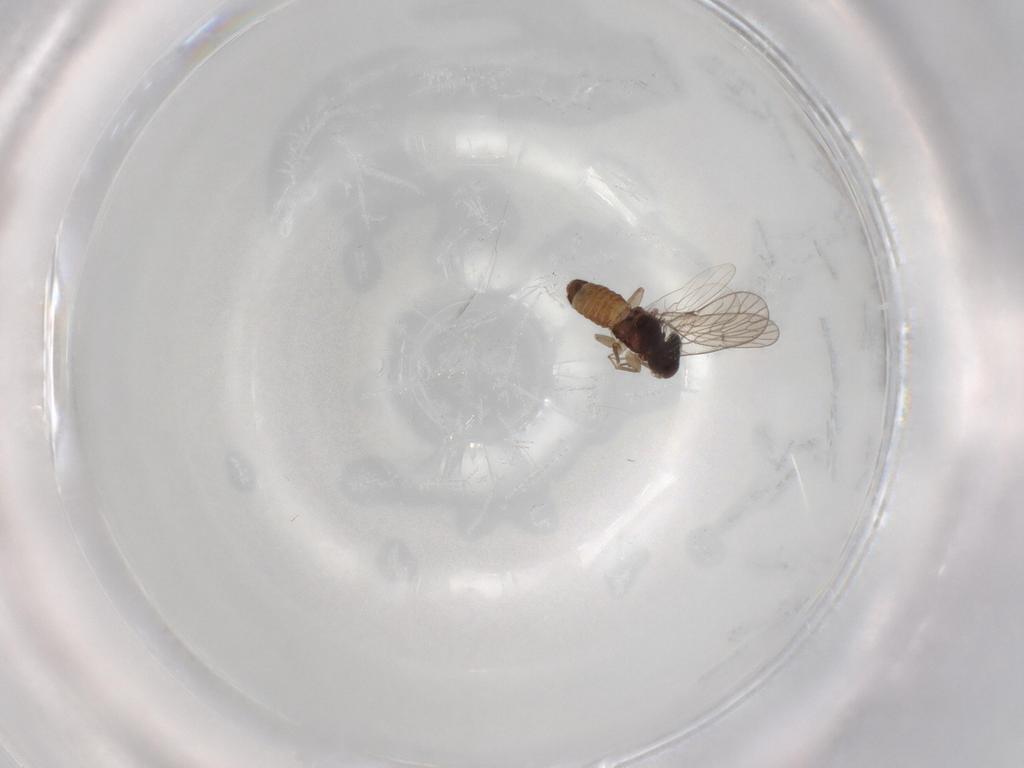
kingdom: Animalia
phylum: Arthropoda
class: Insecta
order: Psocodea
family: Psoquillidae
